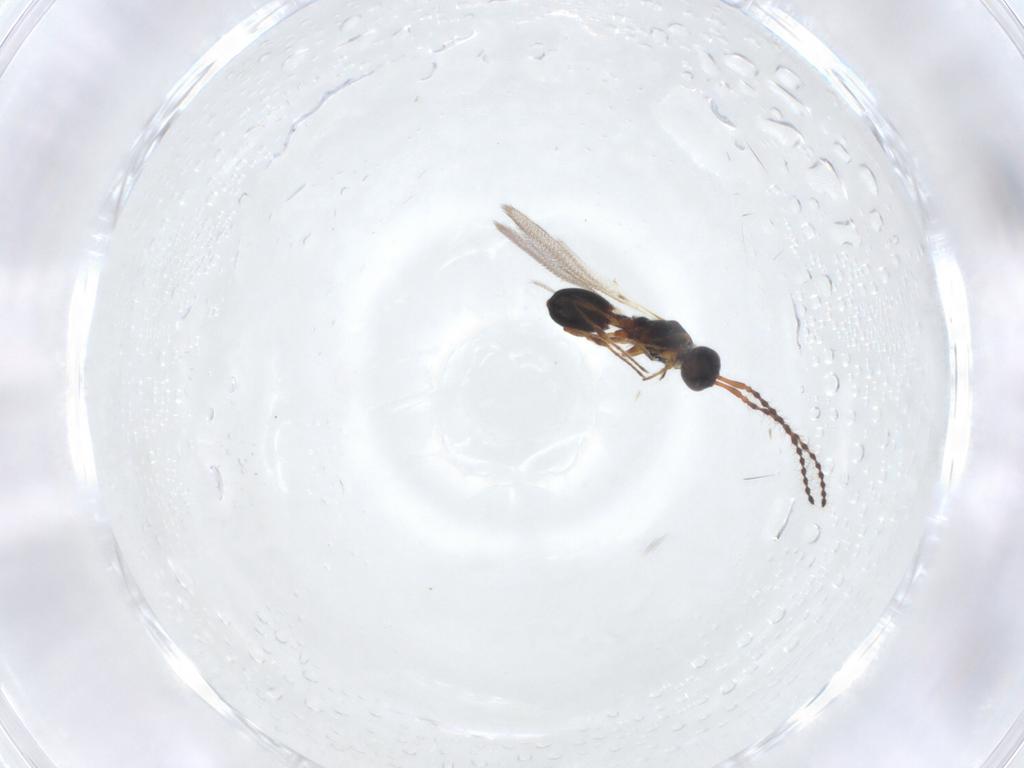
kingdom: Animalia
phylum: Arthropoda
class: Insecta
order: Hymenoptera
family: Diapriidae
